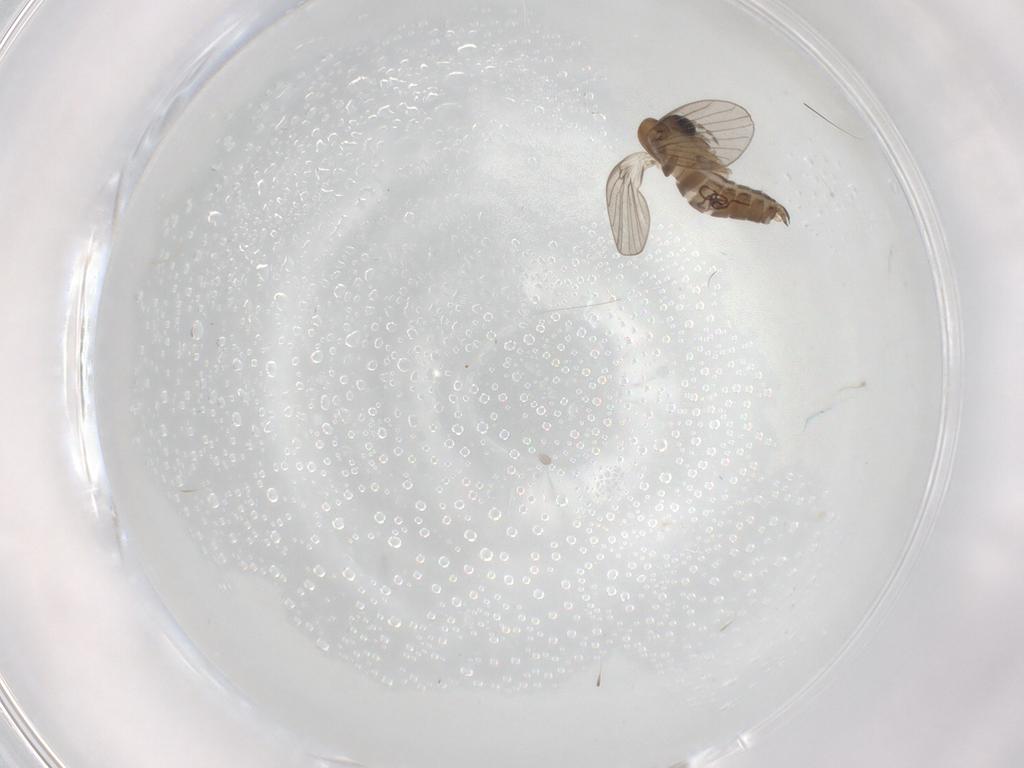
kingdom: Animalia
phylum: Arthropoda
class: Insecta
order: Diptera
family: Psychodidae
